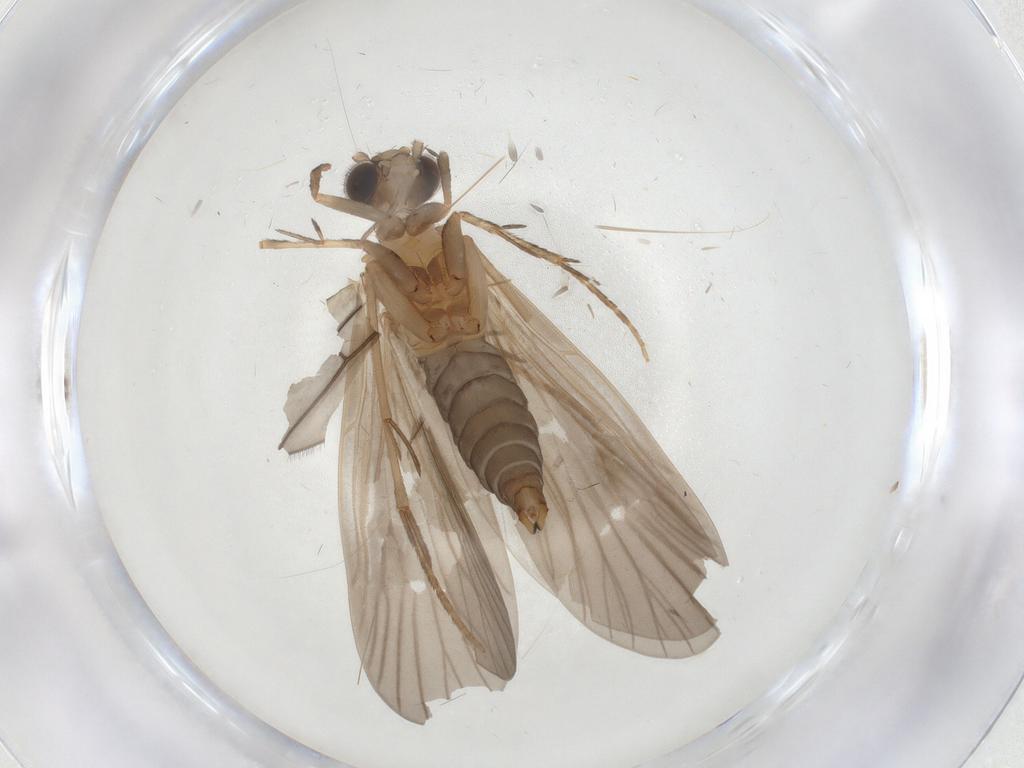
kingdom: Animalia
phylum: Arthropoda
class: Insecta
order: Trichoptera
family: Philopotamidae
